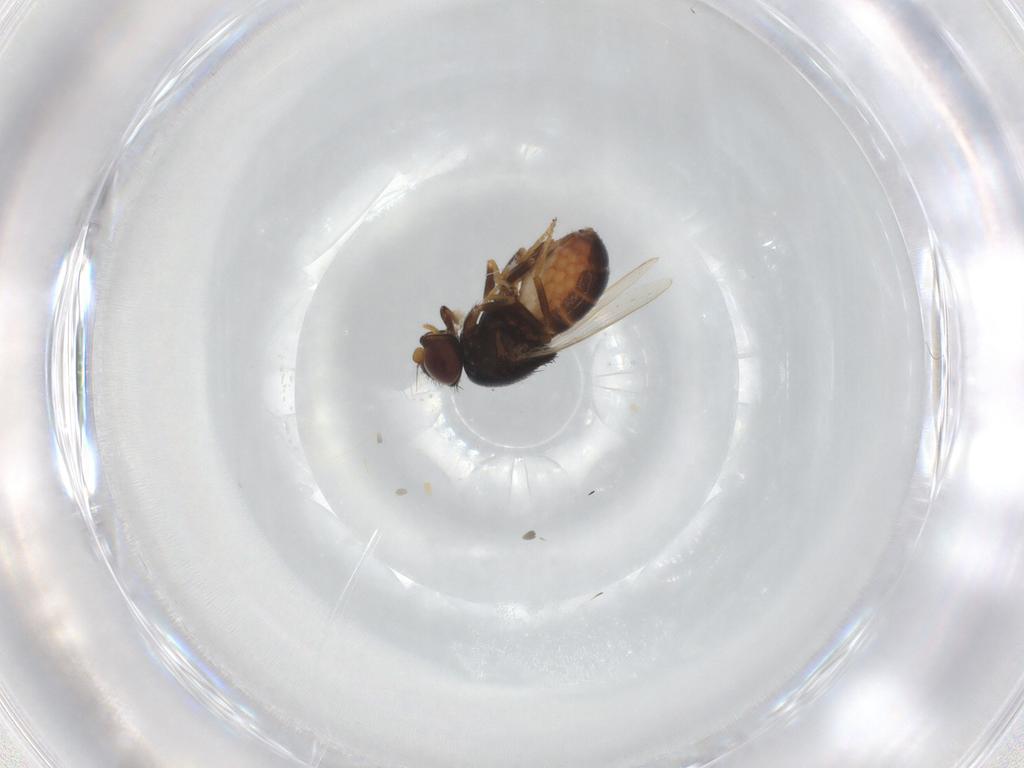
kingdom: Animalia
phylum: Arthropoda
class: Insecta
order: Diptera
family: Chloropidae
